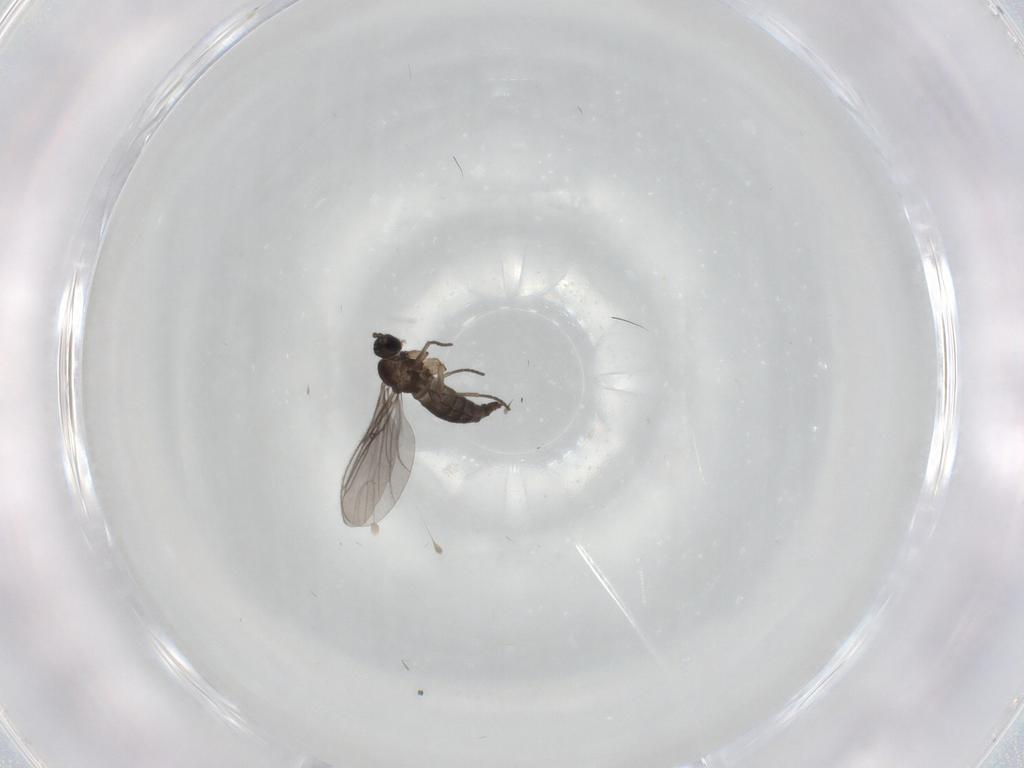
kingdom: Animalia
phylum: Arthropoda
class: Insecta
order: Diptera
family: Sciaridae
